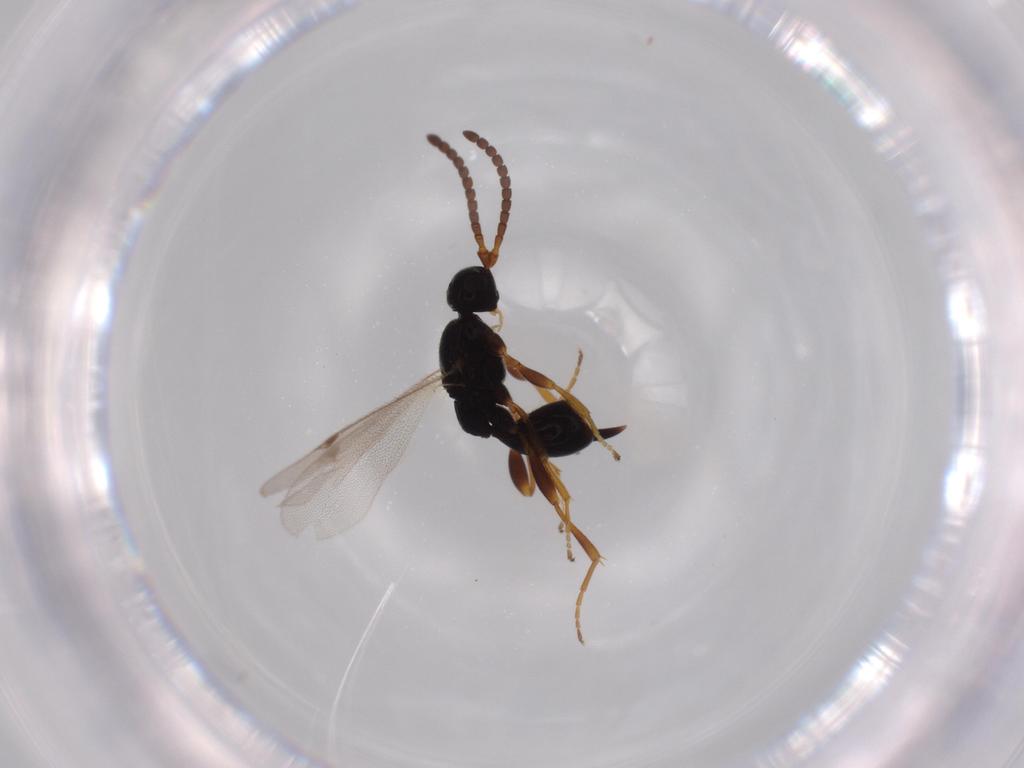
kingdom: Animalia
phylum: Arthropoda
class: Insecta
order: Hymenoptera
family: Proctotrupidae
